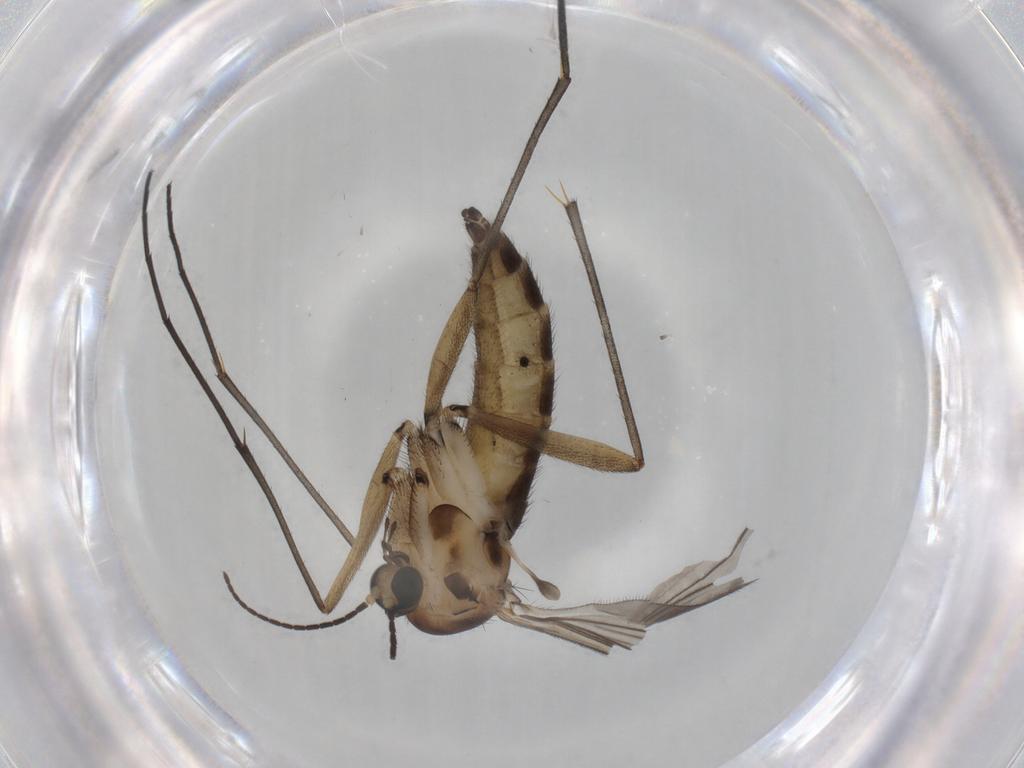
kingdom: Animalia
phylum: Arthropoda
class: Insecta
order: Diptera
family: Sciaridae
